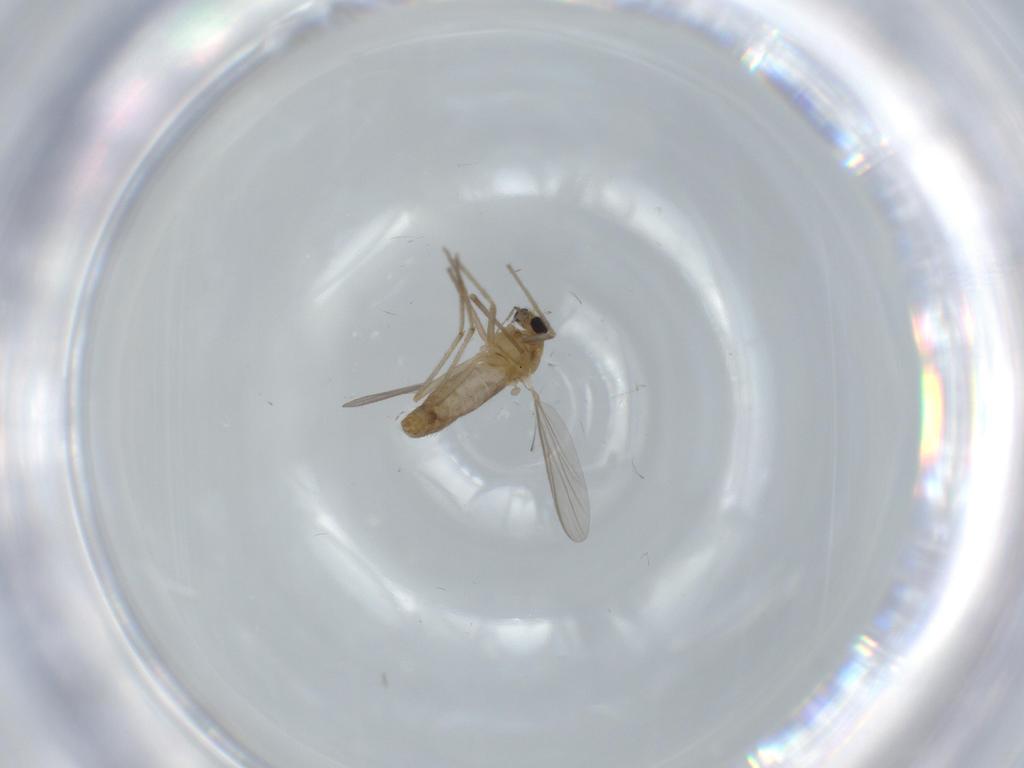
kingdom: Animalia
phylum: Arthropoda
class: Insecta
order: Diptera
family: Chironomidae
